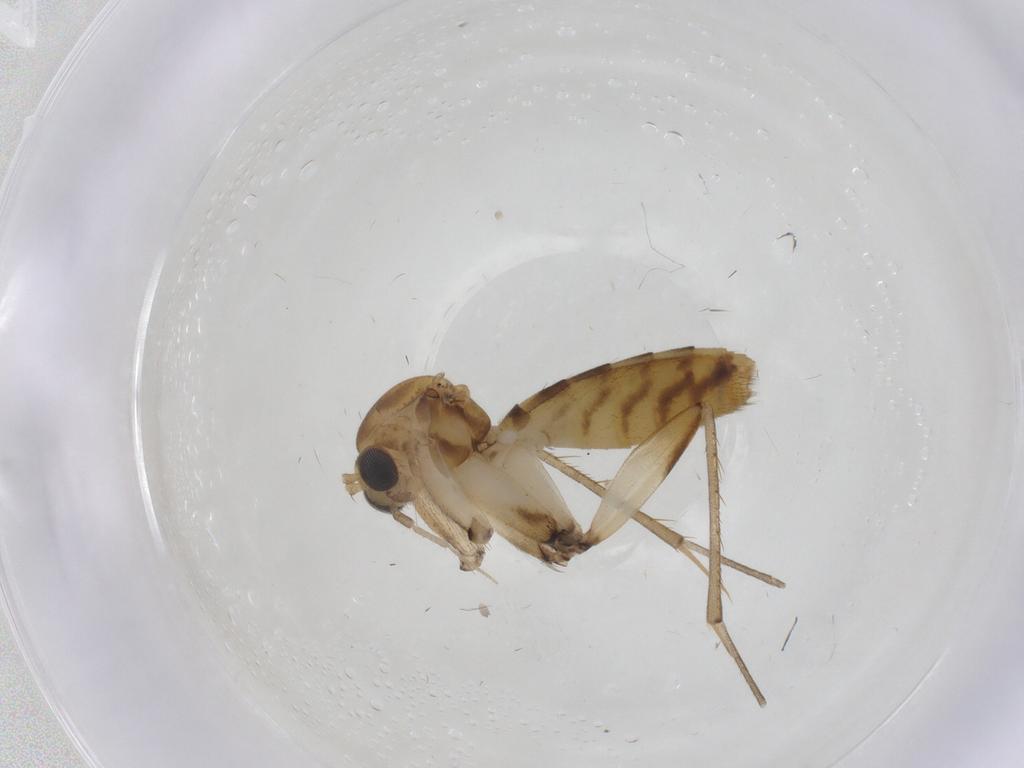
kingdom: Animalia
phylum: Arthropoda
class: Insecta
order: Diptera
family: Mycetophilidae
